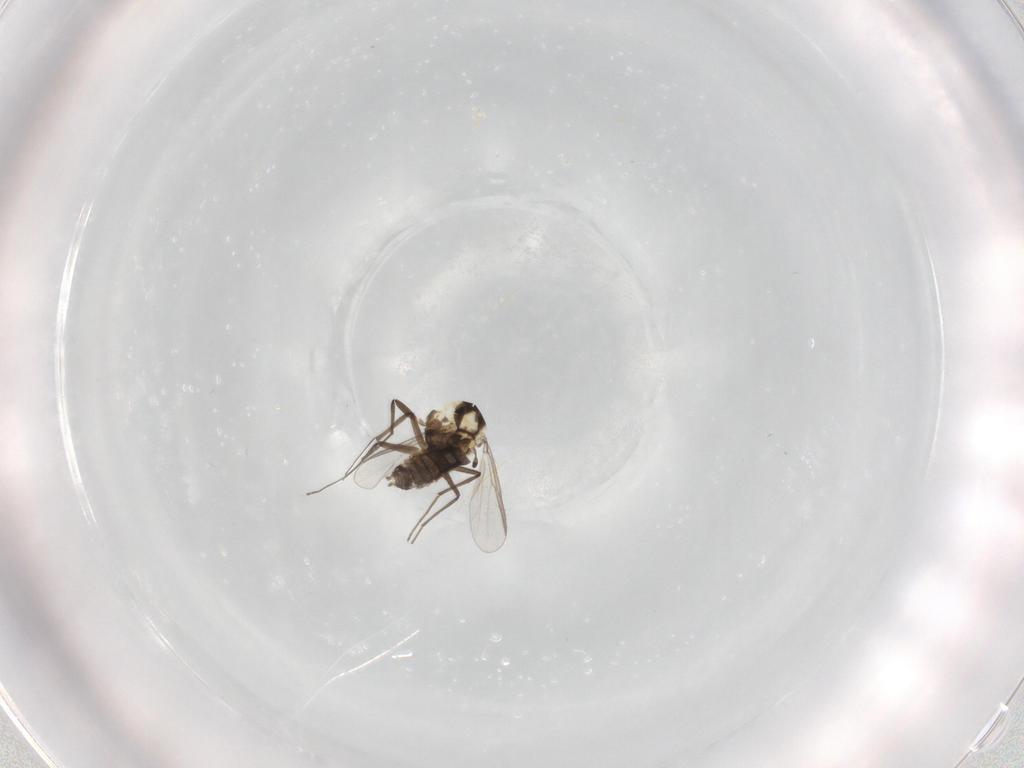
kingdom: Animalia
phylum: Arthropoda
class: Insecta
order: Diptera
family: Chironomidae
